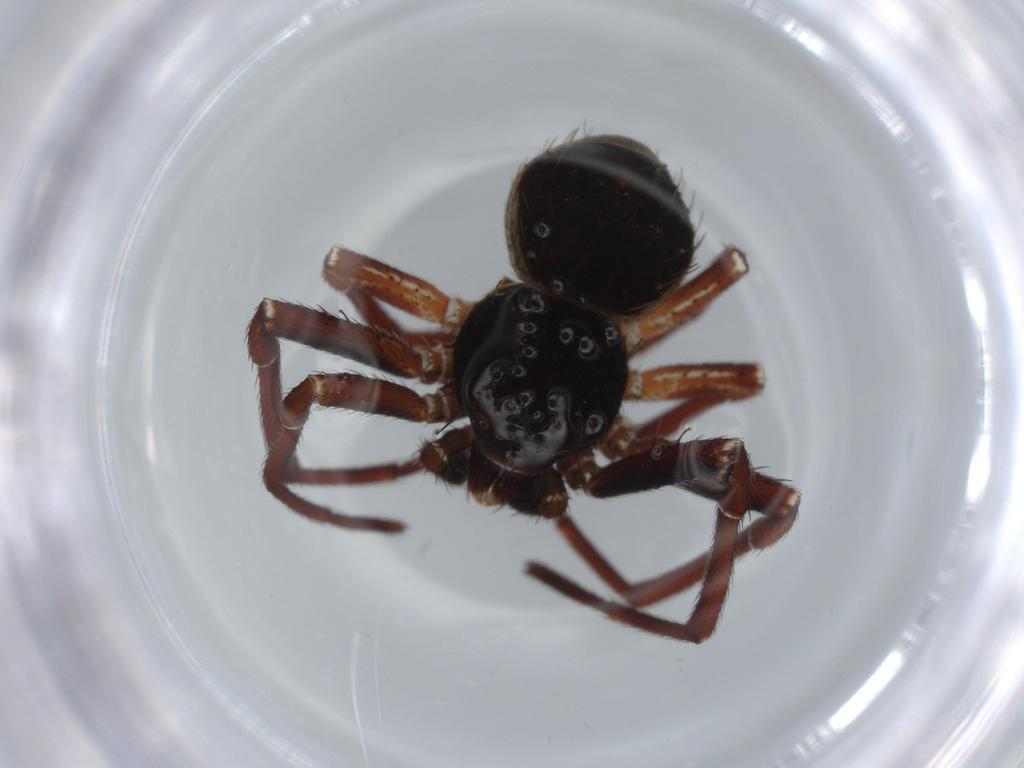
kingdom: Animalia
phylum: Arthropoda
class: Arachnida
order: Araneae
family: Thomisidae
